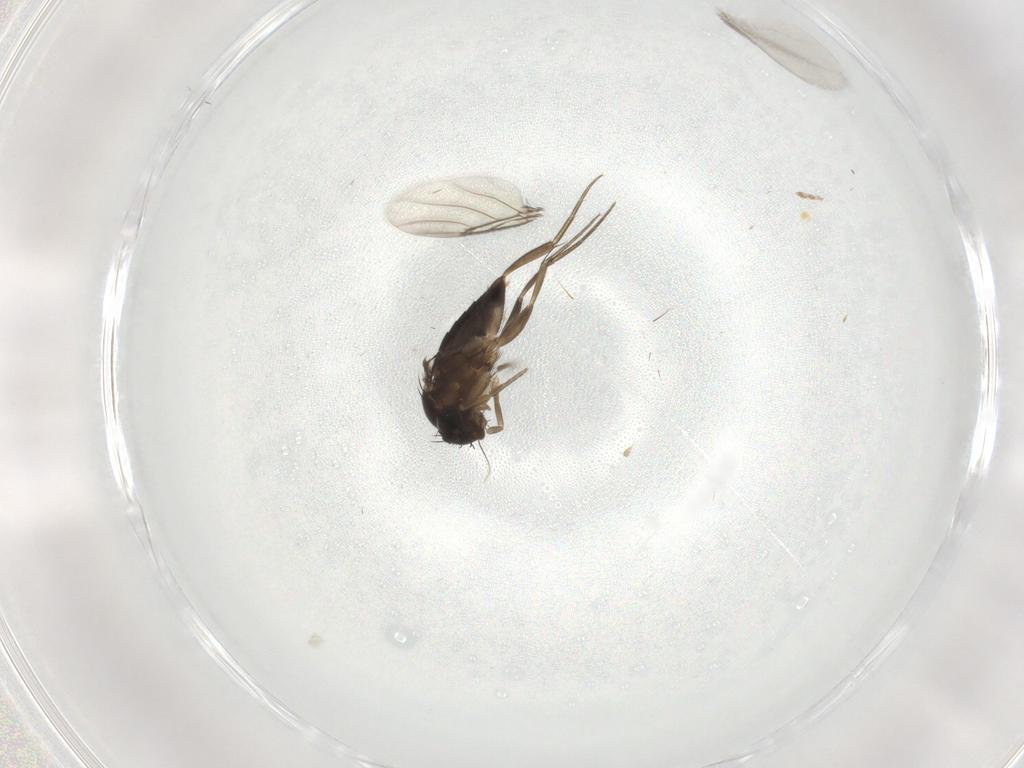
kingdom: Animalia
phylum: Arthropoda
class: Insecta
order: Diptera
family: Phoridae
